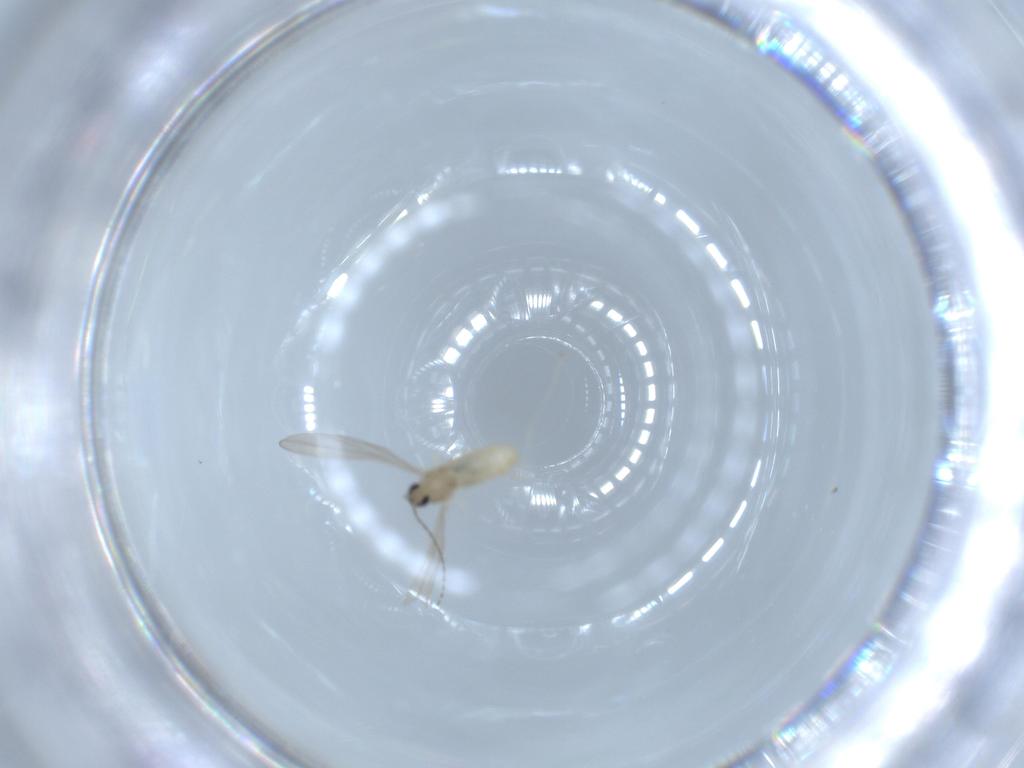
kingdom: Animalia
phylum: Arthropoda
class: Insecta
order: Diptera
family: Cecidomyiidae
